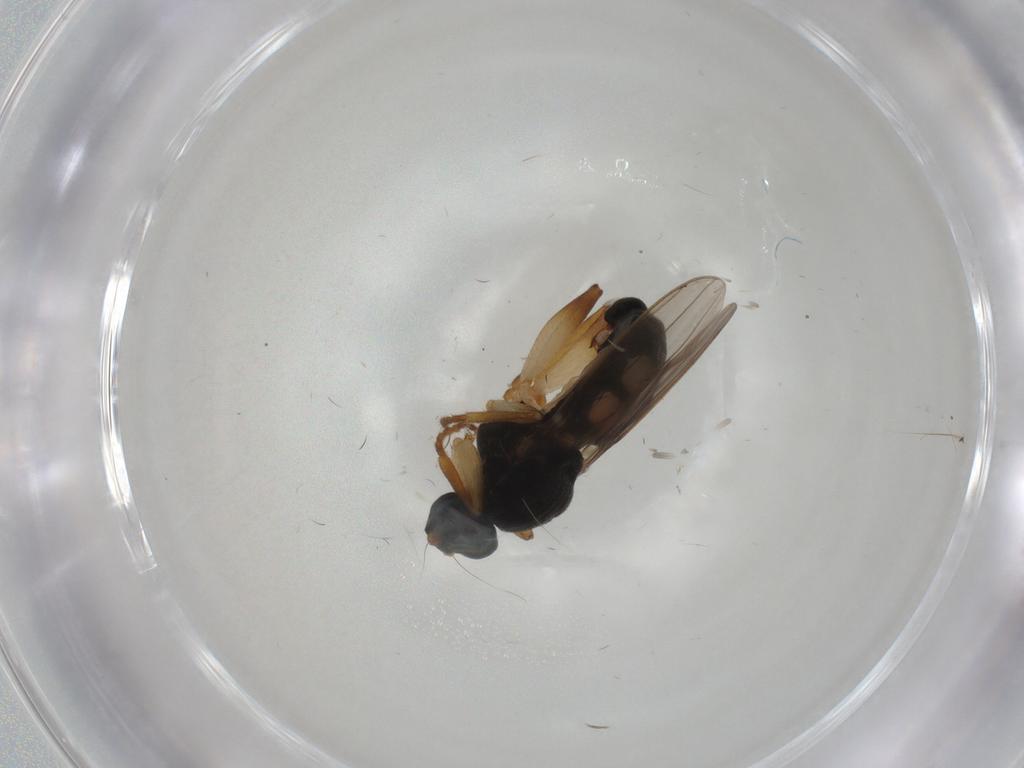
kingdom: Animalia
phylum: Arthropoda
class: Insecta
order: Diptera
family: Sphaeroceridae
